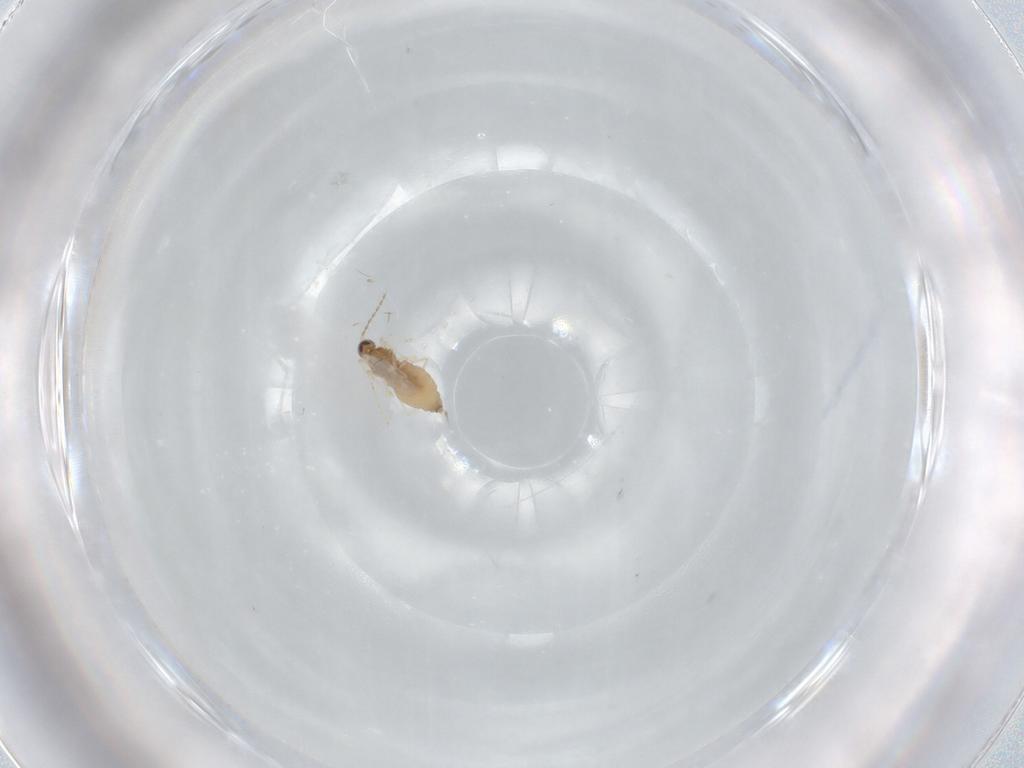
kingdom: Animalia
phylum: Arthropoda
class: Insecta
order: Diptera
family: Cecidomyiidae
